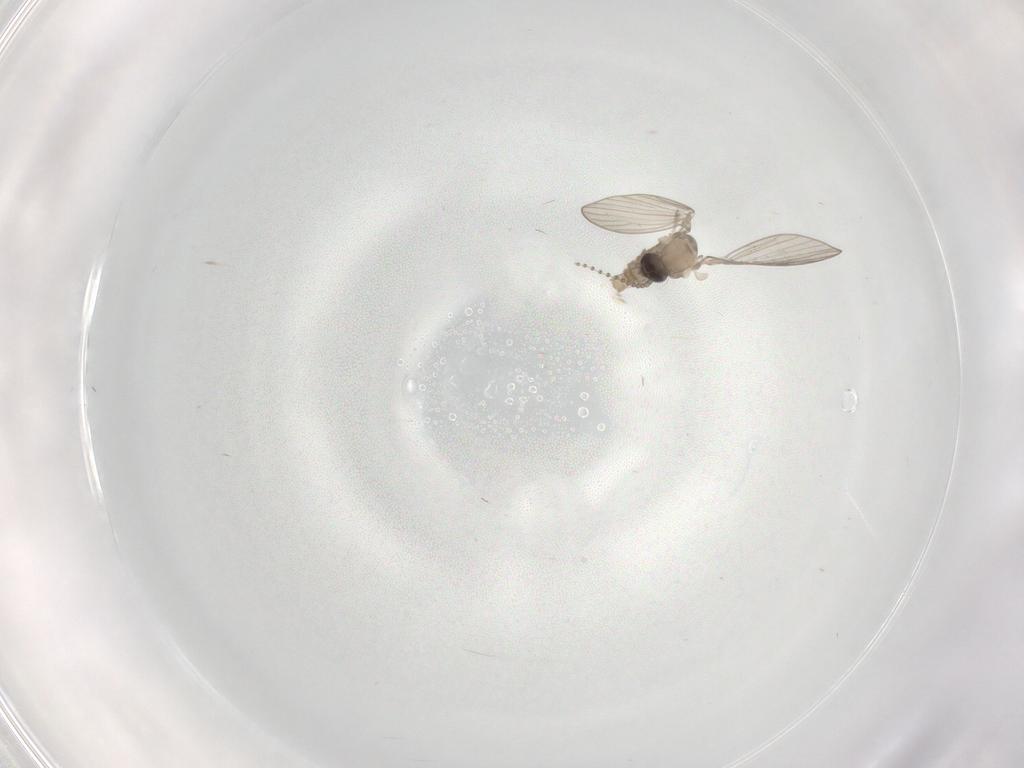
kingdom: Animalia
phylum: Arthropoda
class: Insecta
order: Diptera
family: Psychodidae
